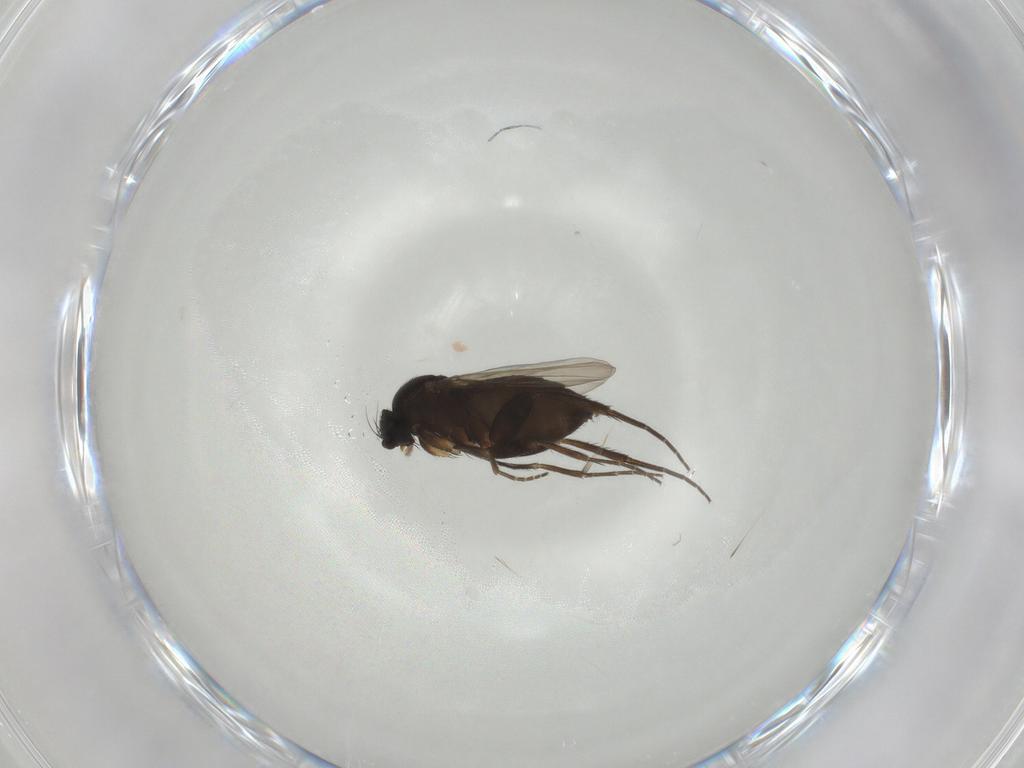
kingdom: Animalia
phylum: Arthropoda
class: Insecta
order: Diptera
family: Phoridae
